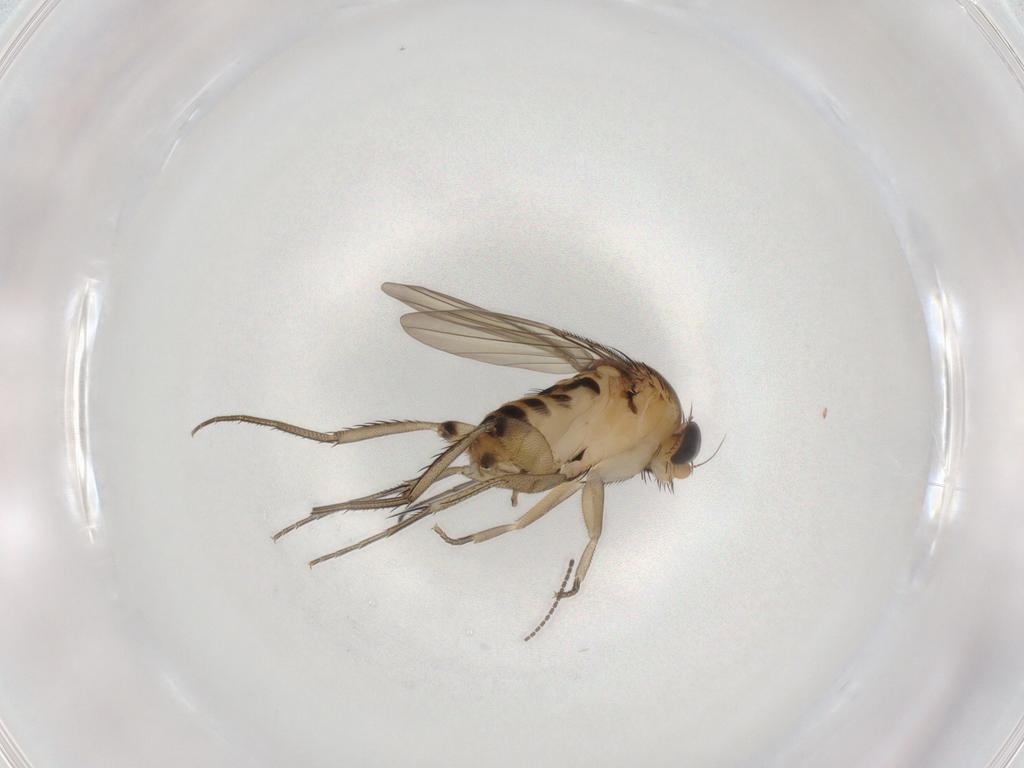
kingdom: Animalia
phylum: Arthropoda
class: Insecta
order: Diptera
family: Phoridae
